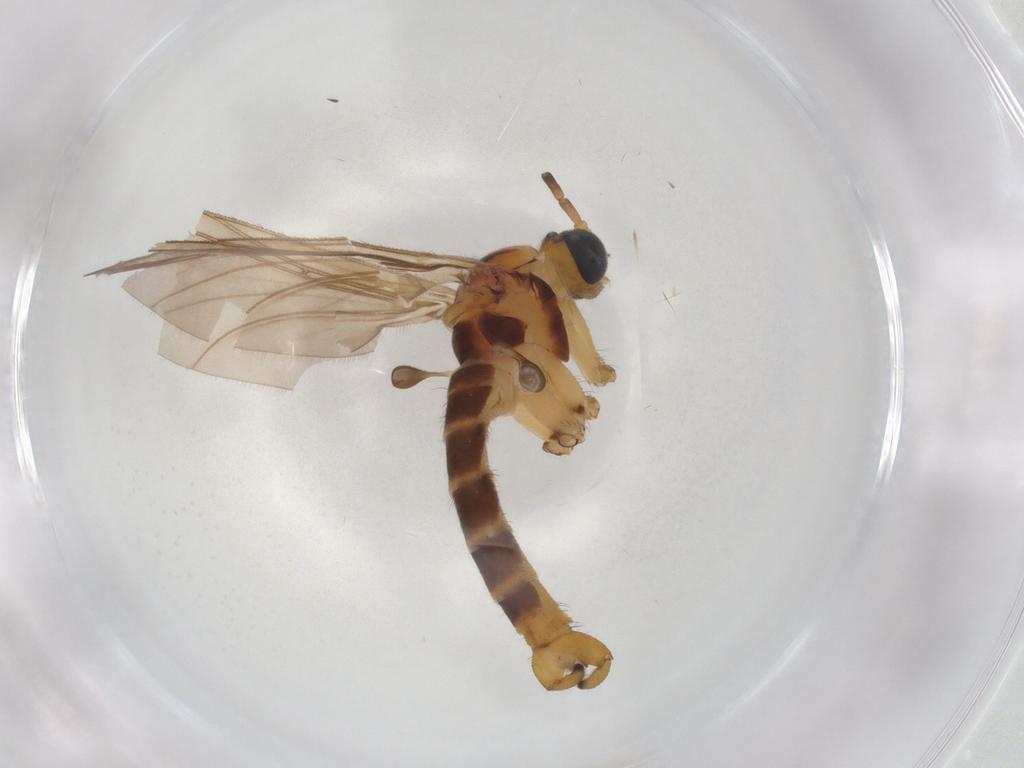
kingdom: Animalia
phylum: Arthropoda
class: Insecta
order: Diptera
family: Sciaridae
